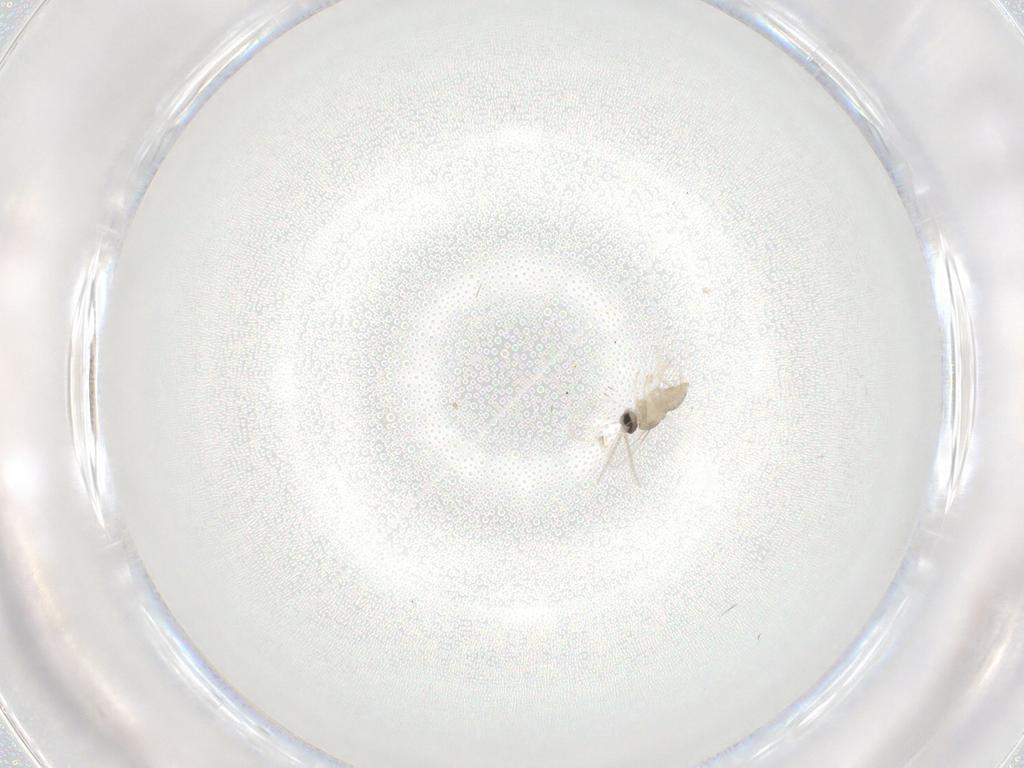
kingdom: Animalia
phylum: Arthropoda
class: Insecta
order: Diptera
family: Cecidomyiidae
